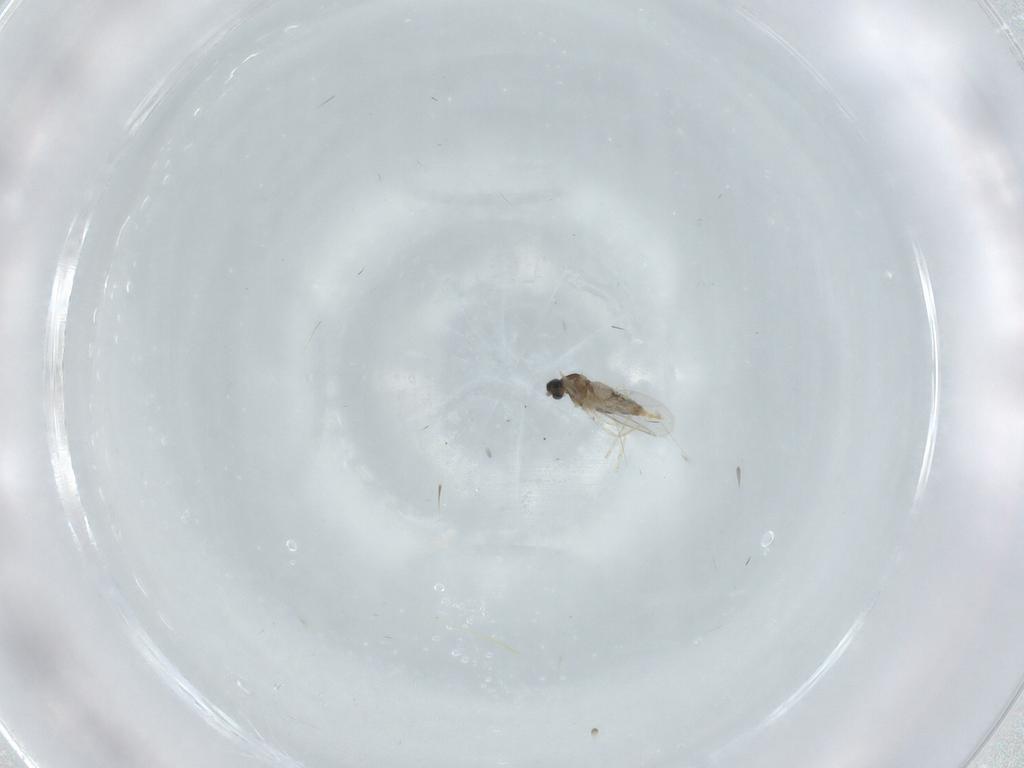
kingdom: Animalia
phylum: Arthropoda
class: Insecta
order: Diptera
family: Cecidomyiidae
